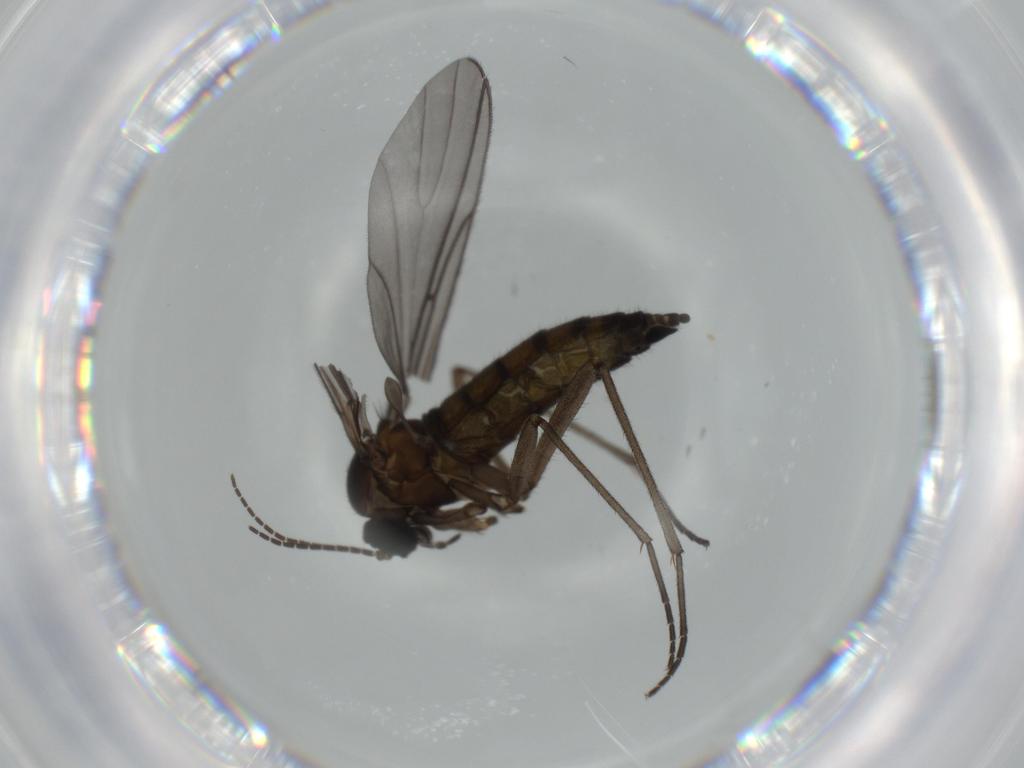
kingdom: Animalia
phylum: Arthropoda
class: Insecta
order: Diptera
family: Sciaridae
